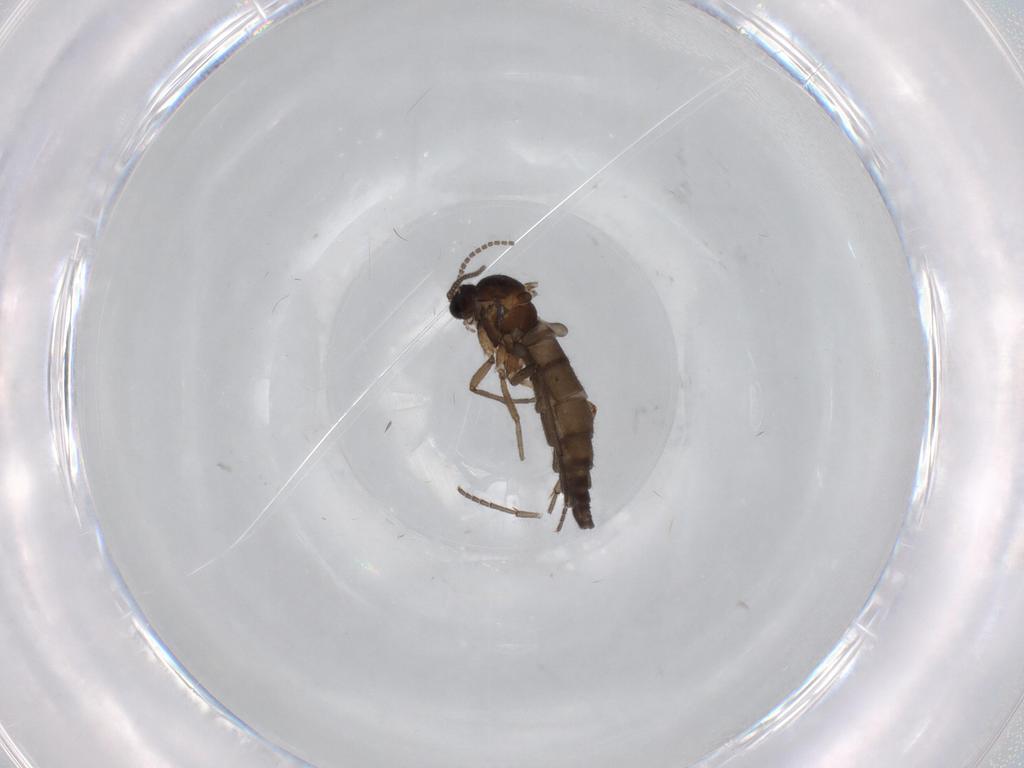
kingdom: Animalia
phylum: Arthropoda
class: Insecta
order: Diptera
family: Sciaridae
